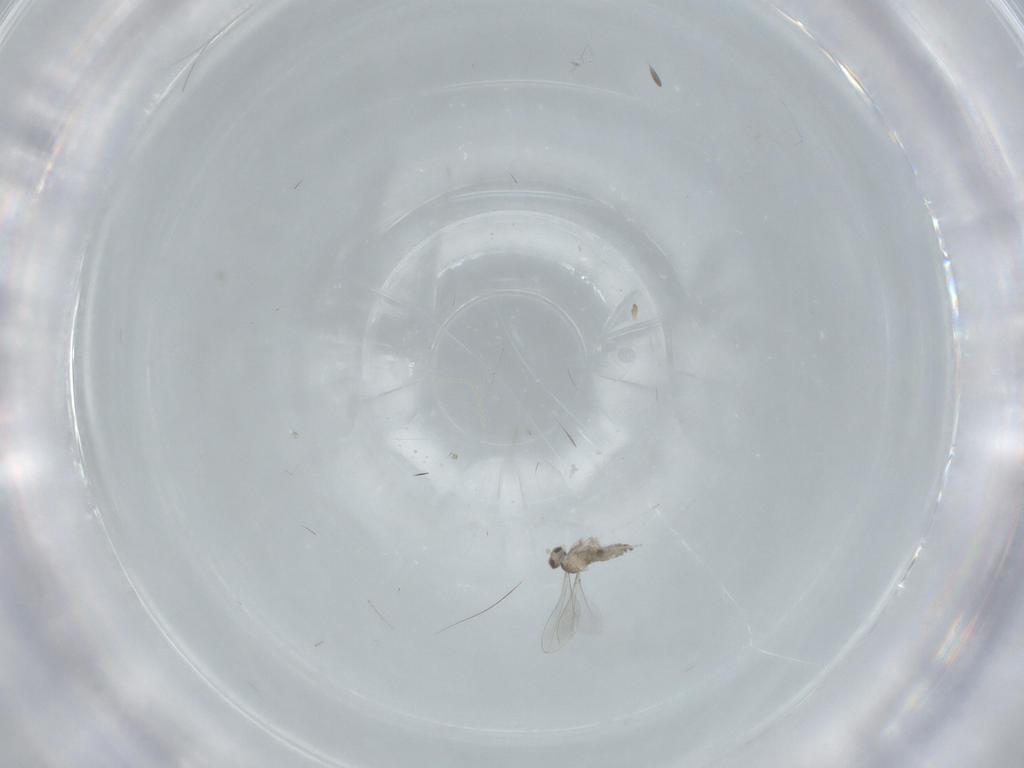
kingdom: Animalia
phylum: Arthropoda
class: Insecta
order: Diptera
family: Cecidomyiidae
